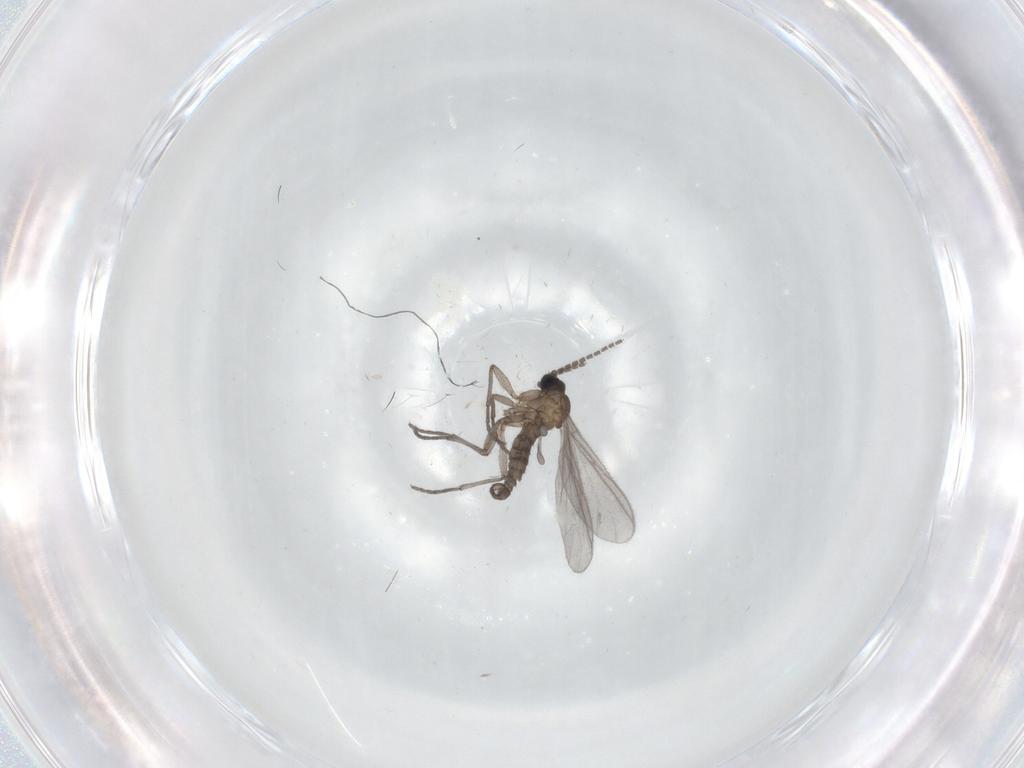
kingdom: Animalia
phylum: Arthropoda
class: Insecta
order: Diptera
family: Sciaridae
